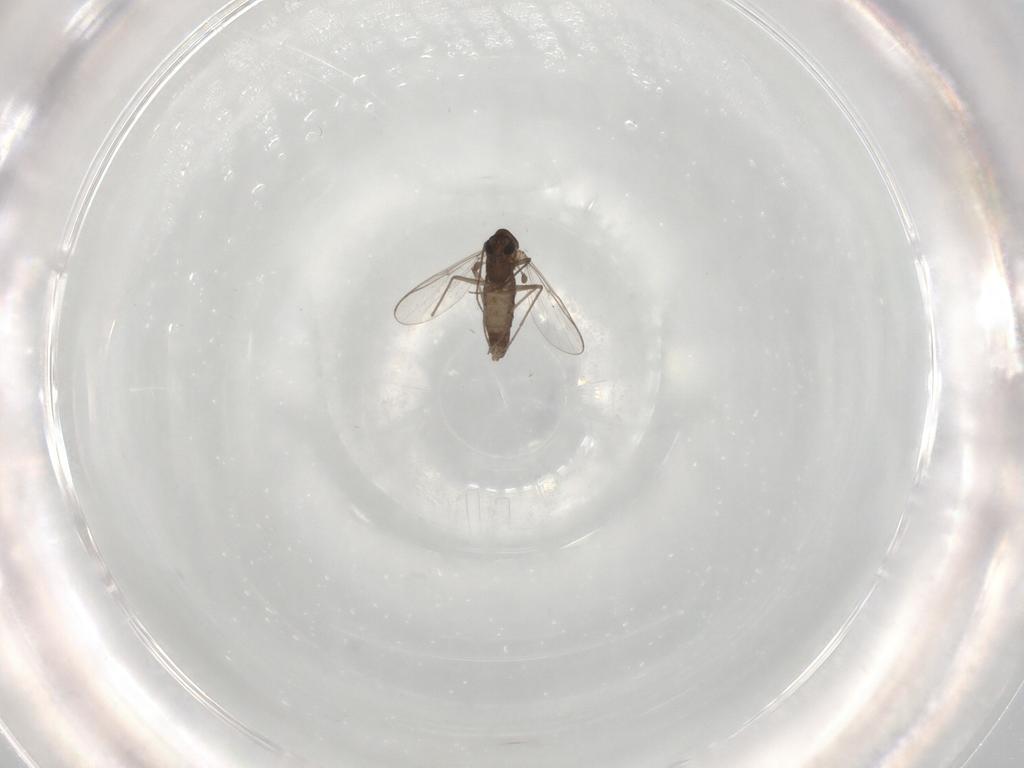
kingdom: Animalia
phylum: Arthropoda
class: Insecta
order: Diptera
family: Chironomidae
